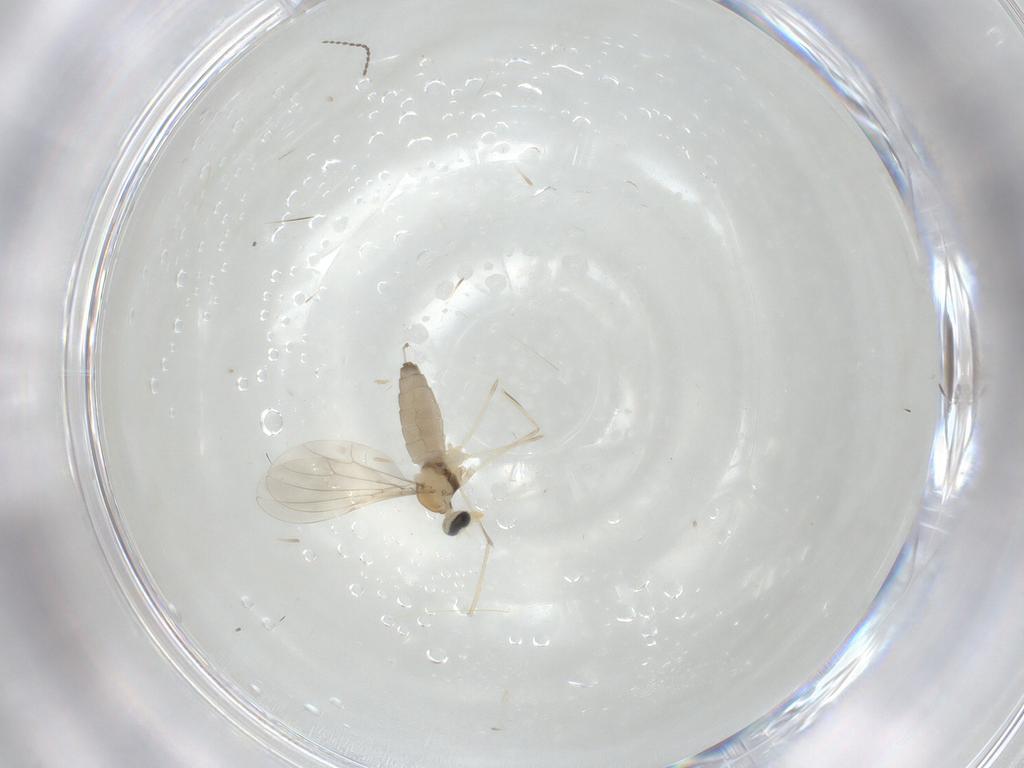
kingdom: Animalia
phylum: Arthropoda
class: Insecta
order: Diptera
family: Cecidomyiidae
